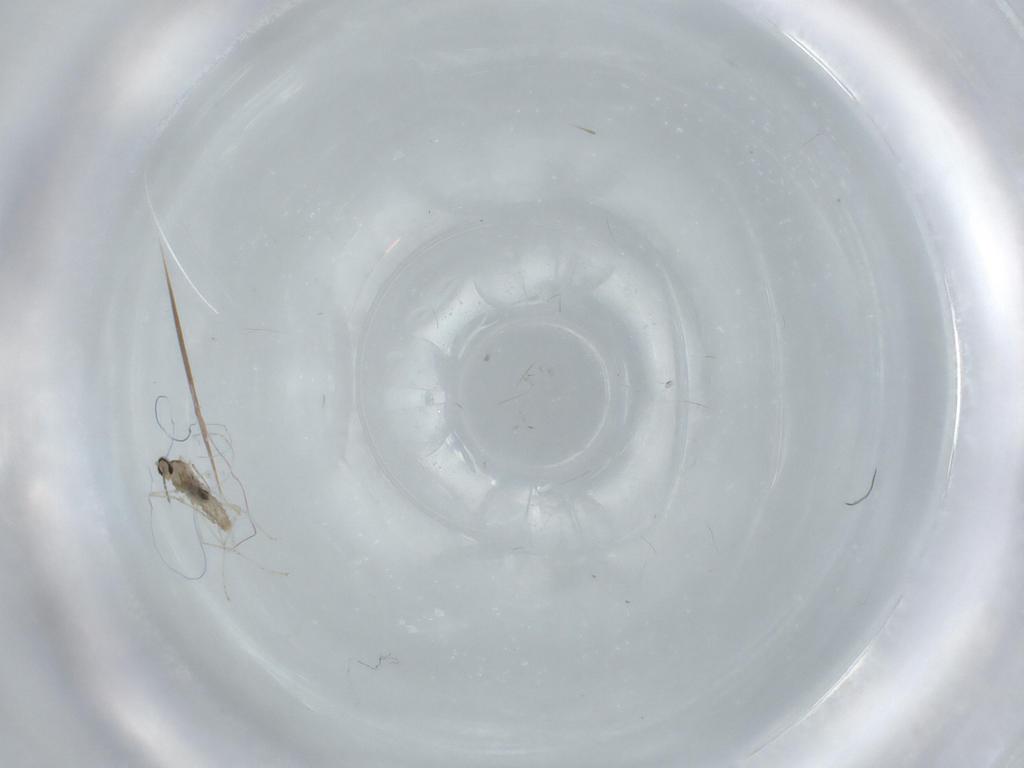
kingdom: Animalia
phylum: Arthropoda
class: Insecta
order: Diptera
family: Cecidomyiidae
